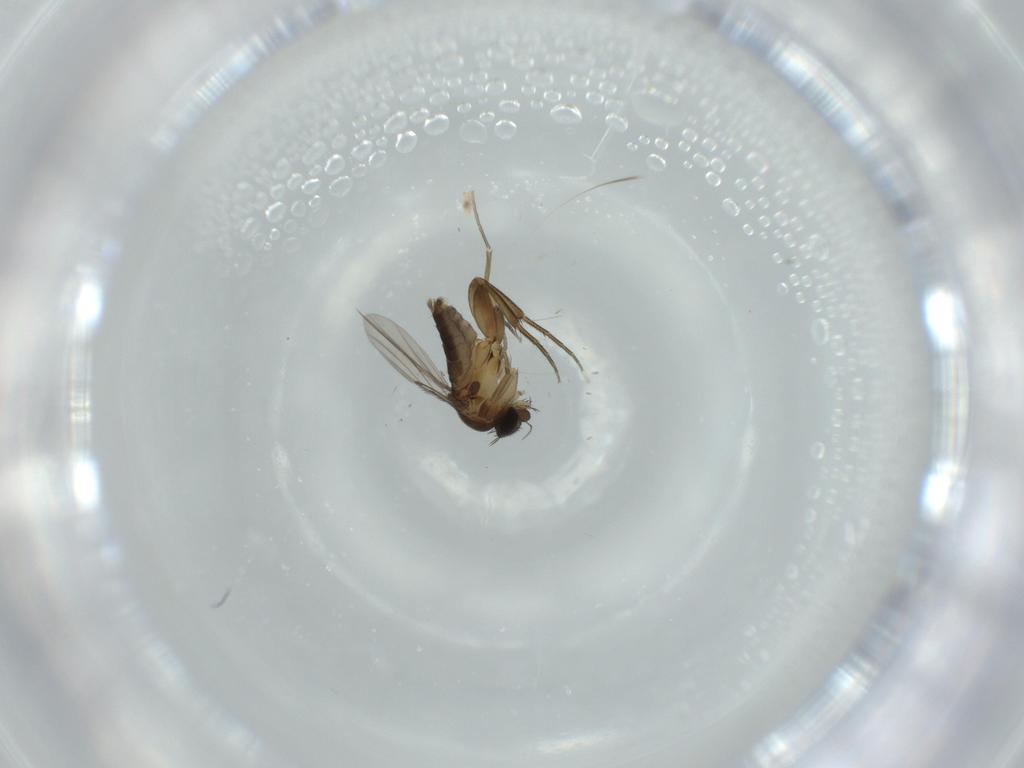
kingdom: Animalia
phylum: Arthropoda
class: Insecta
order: Diptera
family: Phoridae
